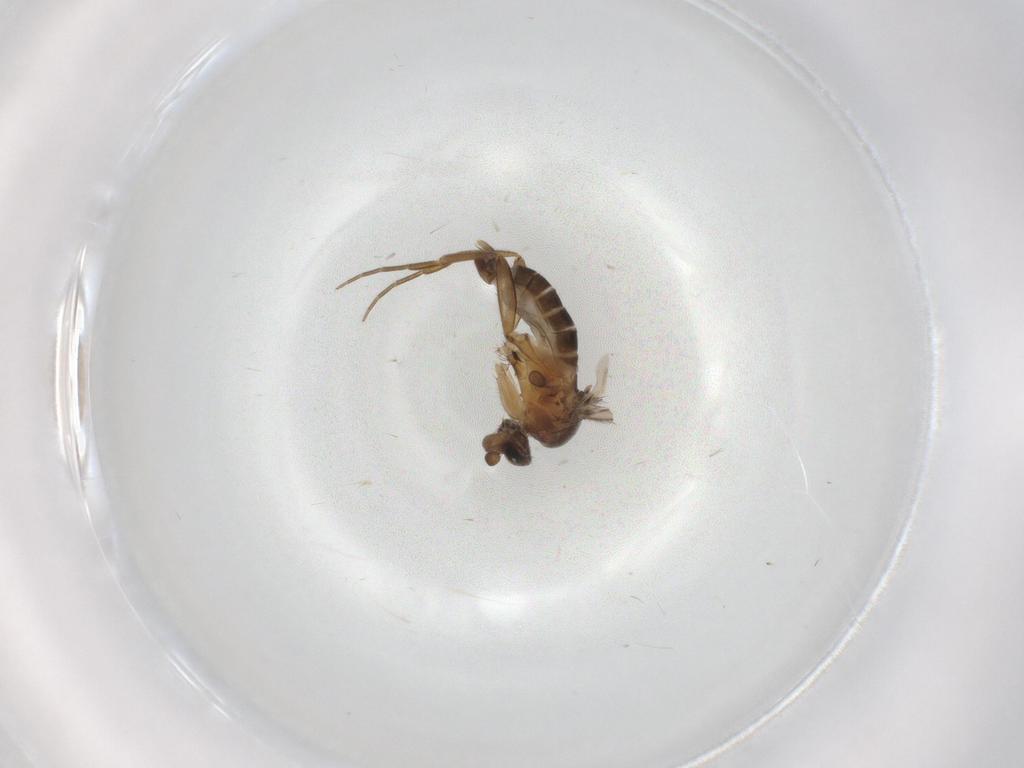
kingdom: Animalia
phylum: Arthropoda
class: Insecta
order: Diptera
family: Phoridae
